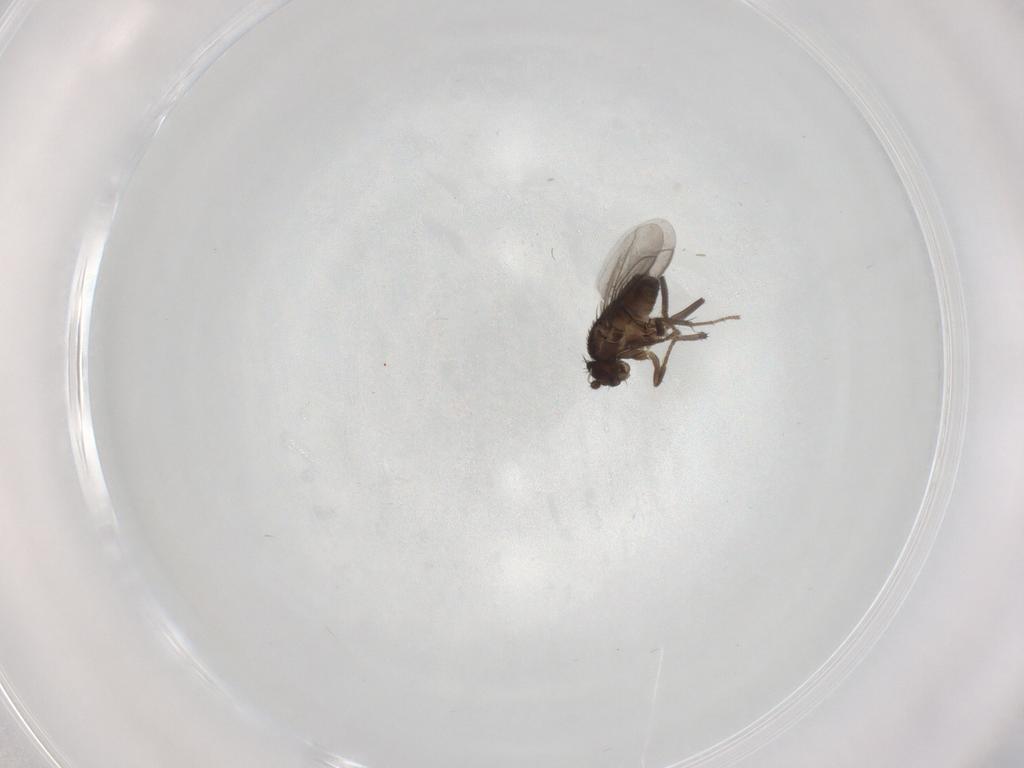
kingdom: Animalia
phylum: Arthropoda
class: Insecta
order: Diptera
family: Sphaeroceridae
